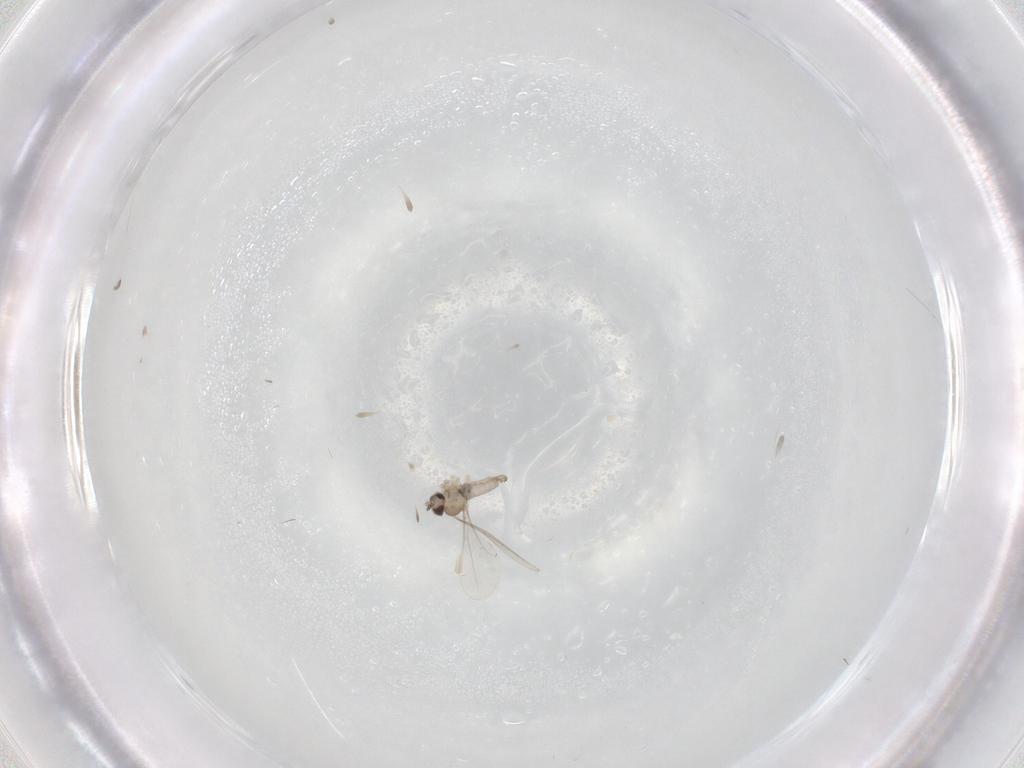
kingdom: Animalia
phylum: Arthropoda
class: Insecta
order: Diptera
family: Cecidomyiidae
